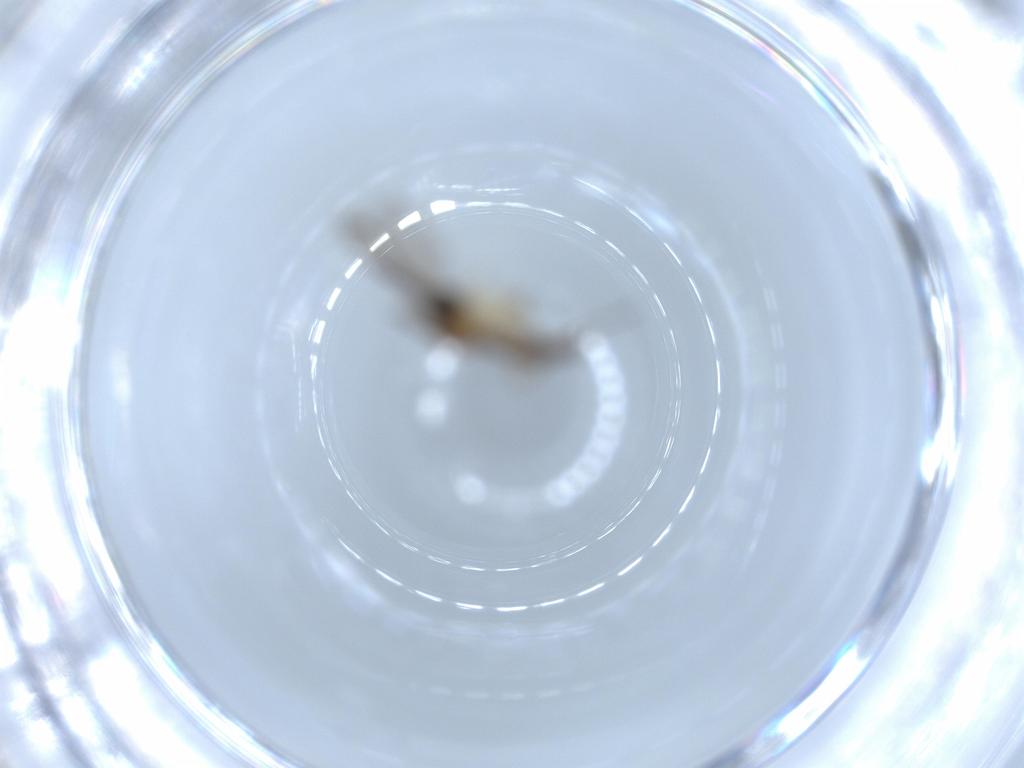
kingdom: Animalia
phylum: Arthropoda
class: Insecta
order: Diptera
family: Sciaridae
